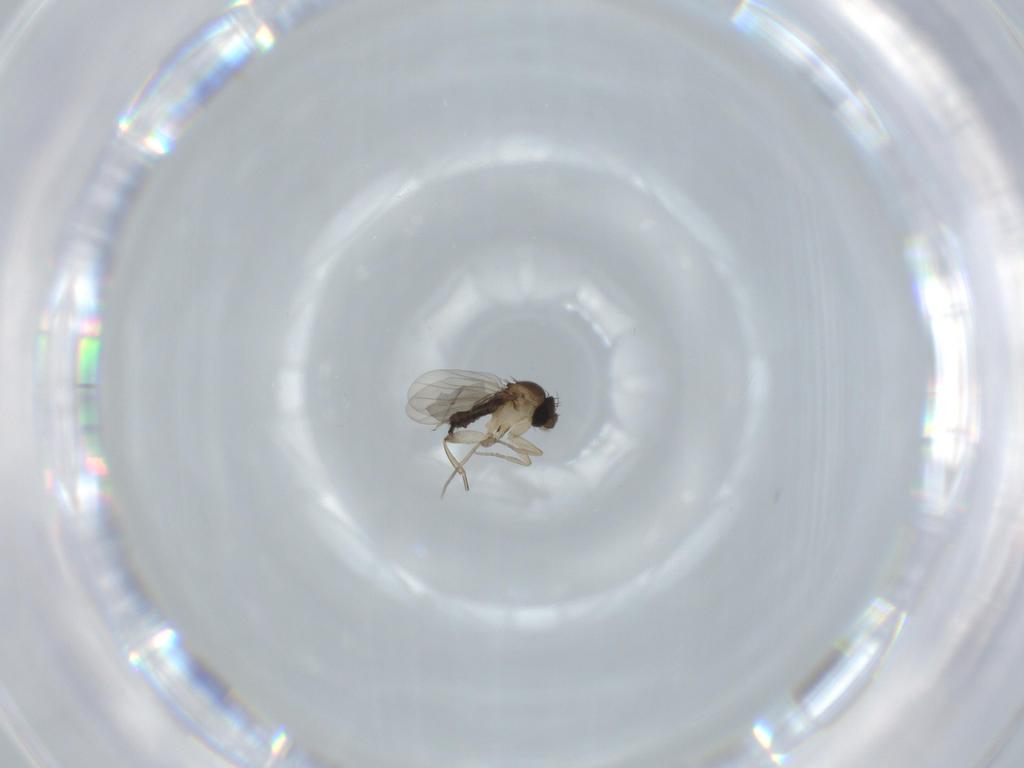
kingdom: Animalia
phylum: Arthropoda
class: Insecta
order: Diptera
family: Phoridae
